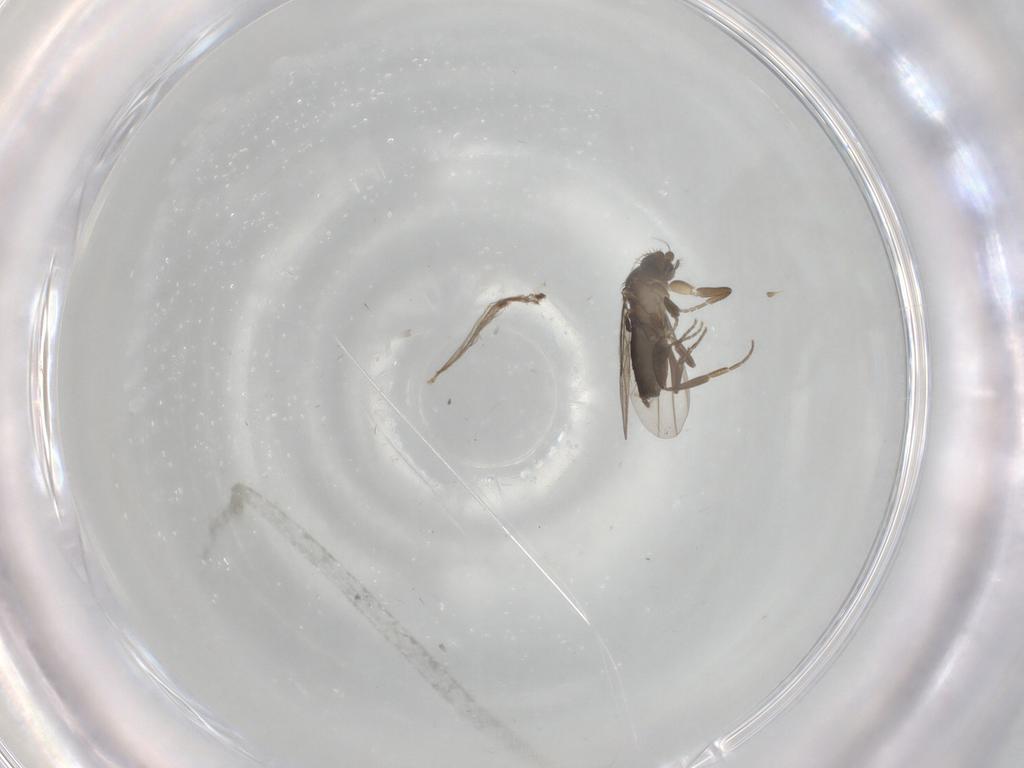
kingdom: Animalia
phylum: Arthropoda
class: Insecta
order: Diptera
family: Phoridae
